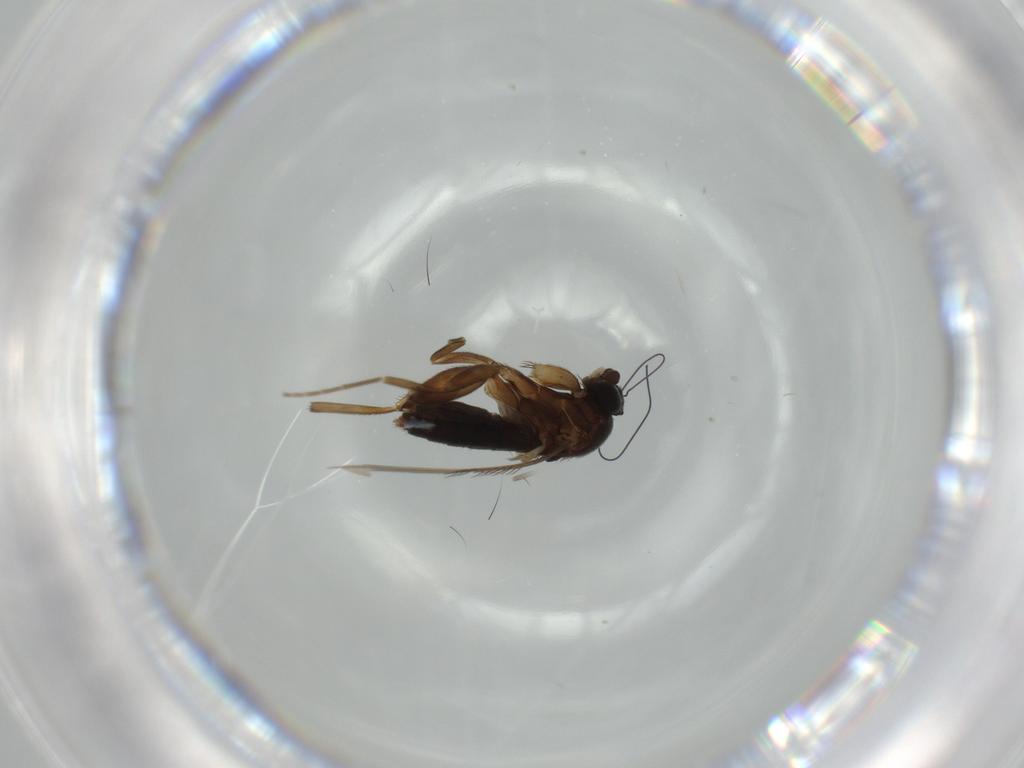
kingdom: Animalia
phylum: Arthropoda
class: Insecta
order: Diptera
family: Phoridae
